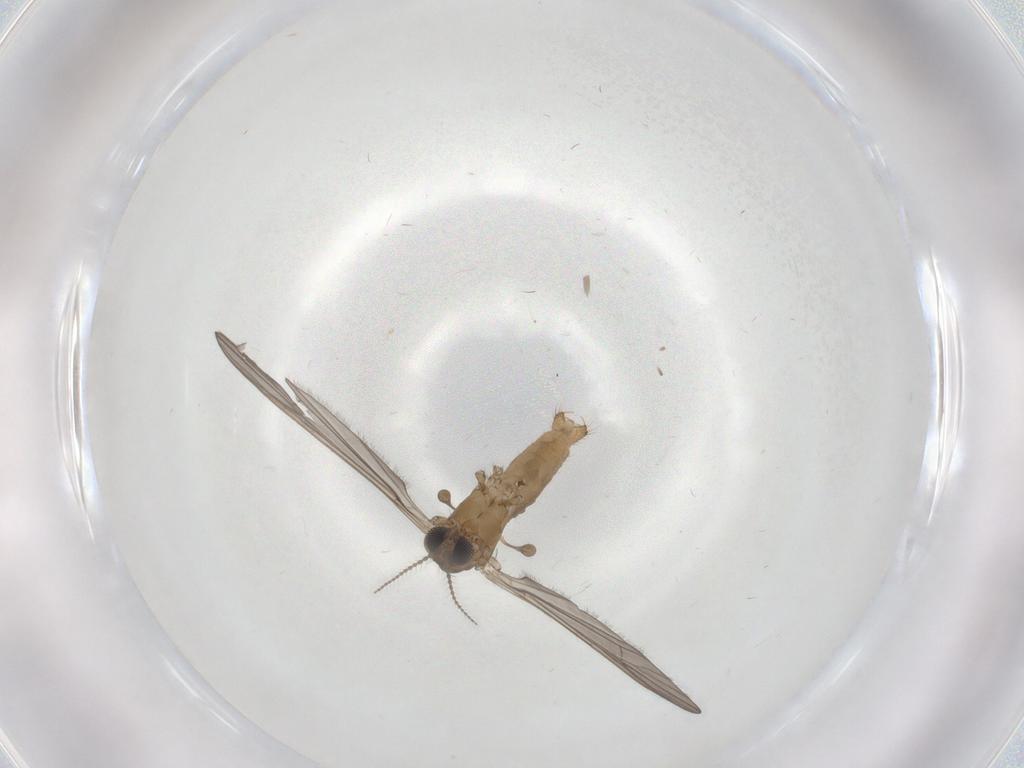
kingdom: Animalia
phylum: Arthropoda
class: Insecta
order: Diptera
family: Limoniidae
